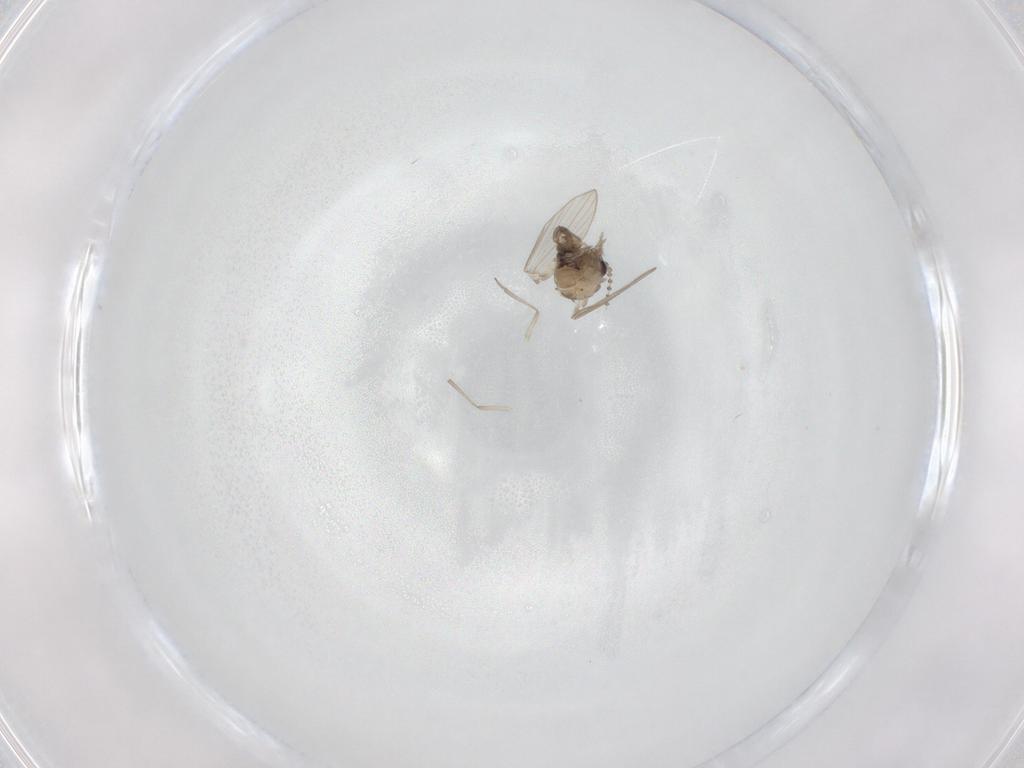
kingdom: Animalia
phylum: Arthropoda
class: Insecta
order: Diptera
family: Psychodidae
